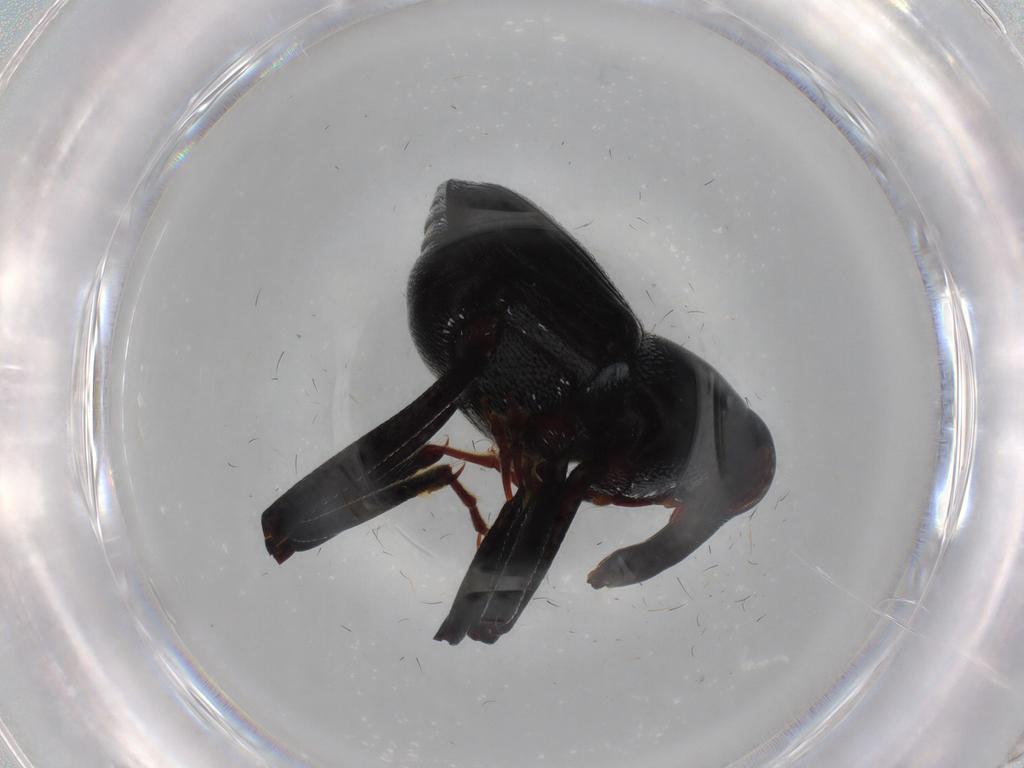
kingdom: Animalia
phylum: Arthropoda
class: Insecta
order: Coleoptera
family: Curculionidae
